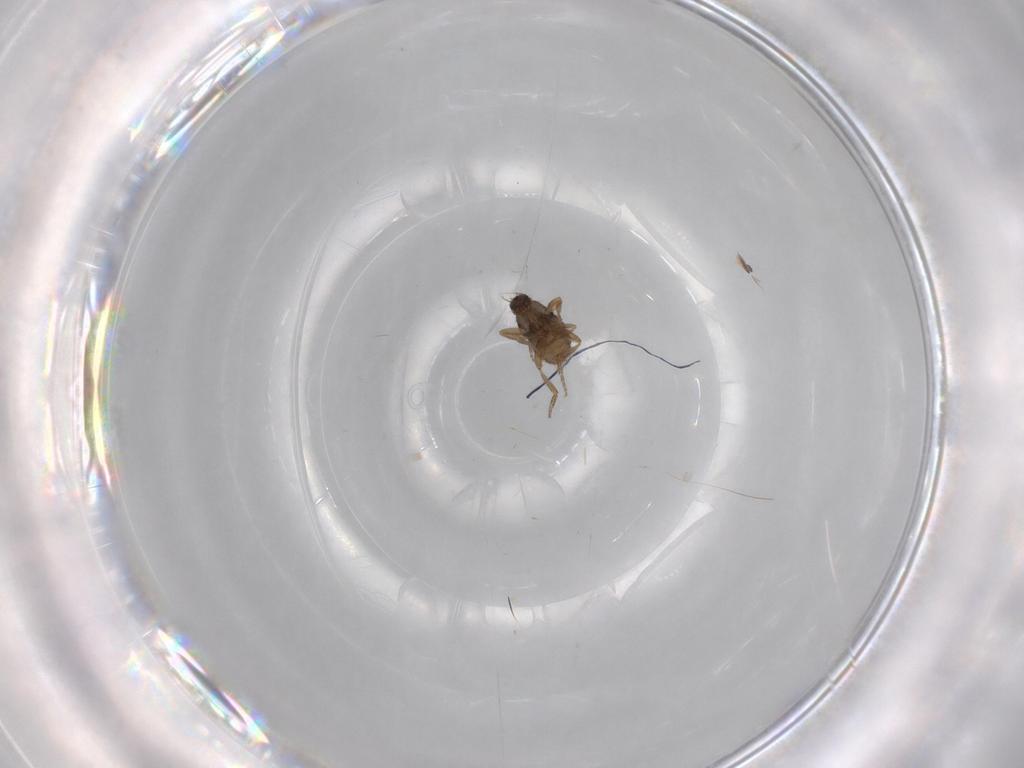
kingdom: Animalia
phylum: Arthropoda
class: Insecta
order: Diptera
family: Phoridae
